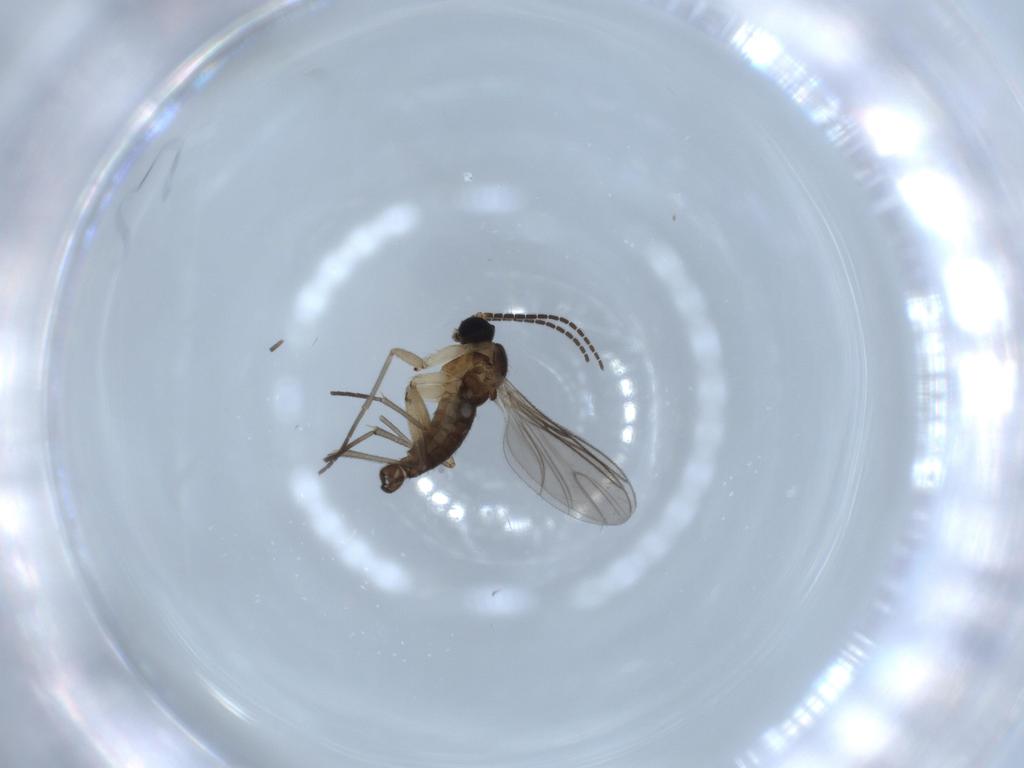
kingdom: Animalia
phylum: Arthropoda
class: Insecta
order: Diptera
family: Sciaridae
